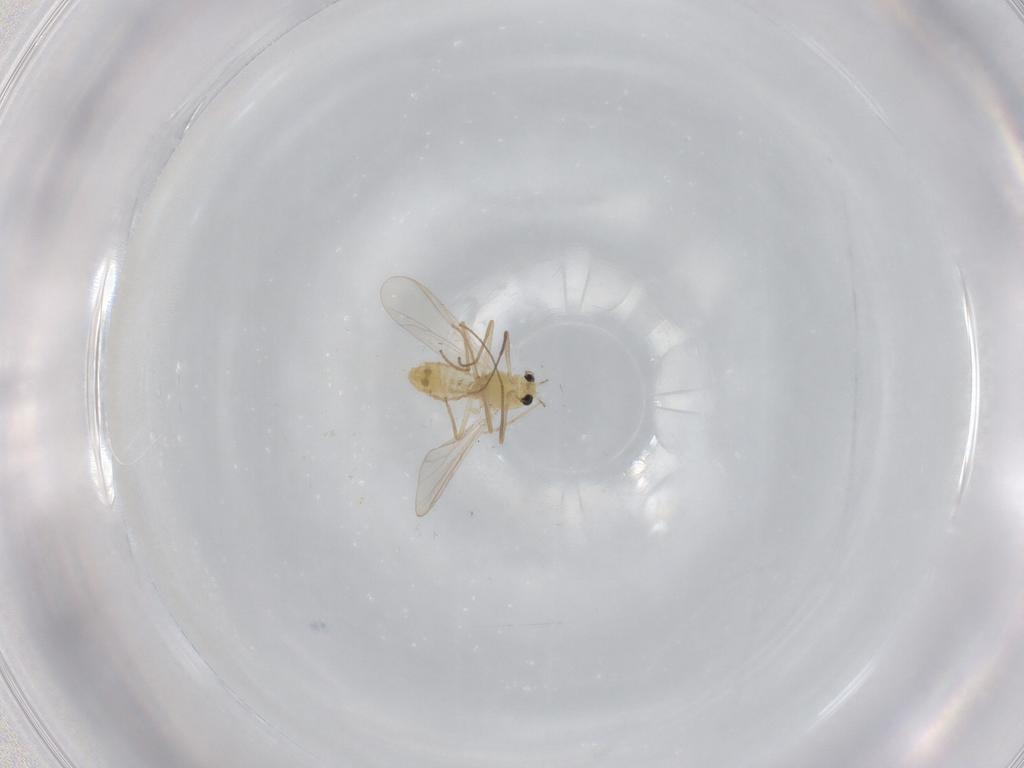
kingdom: Animalia
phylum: Arthropoda
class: Insecta
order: Diptera
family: Chironomidae
